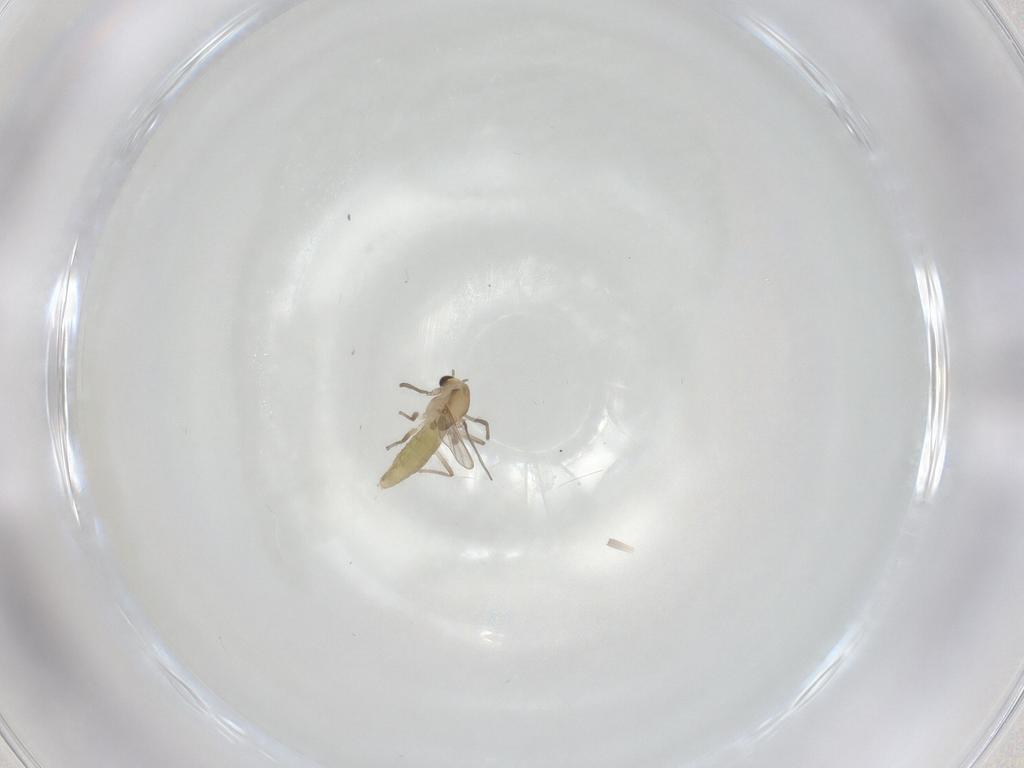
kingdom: Animalia
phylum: Arthropoda
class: Insecta
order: Diptera
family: Chironomidae
